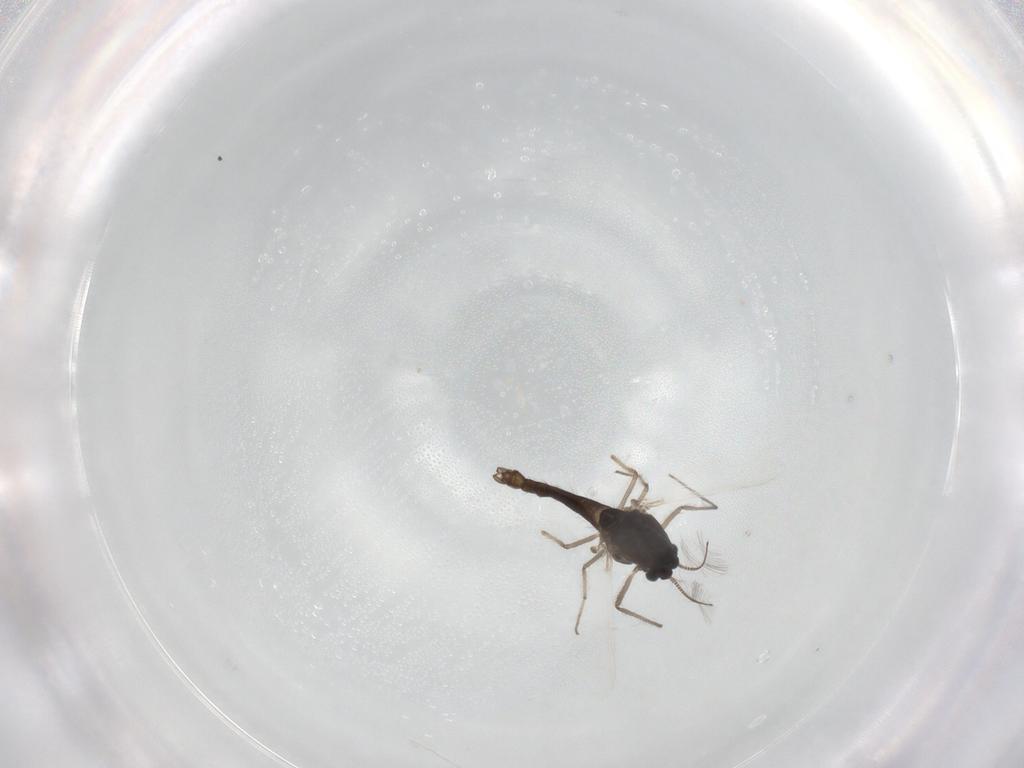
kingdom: Animalia
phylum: Arthropoda
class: Insecta
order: Diptera
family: Chironomidae
